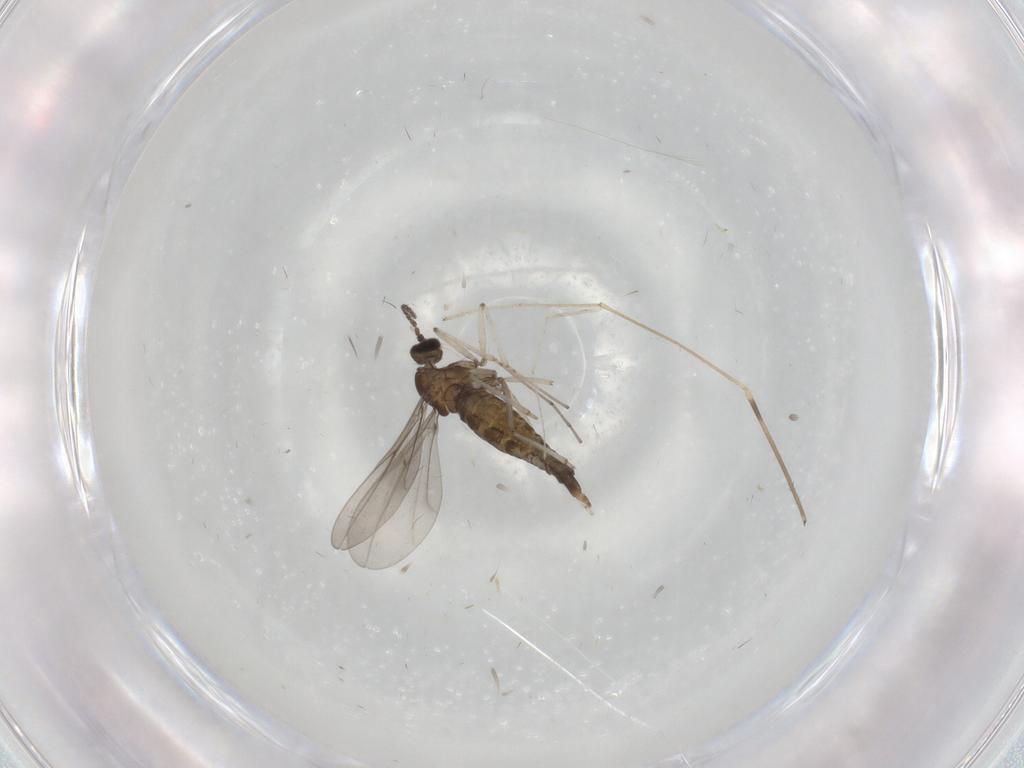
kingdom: Animalia
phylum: Arthropoda
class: Insecta
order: Diptera
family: Cecidomyiidae
